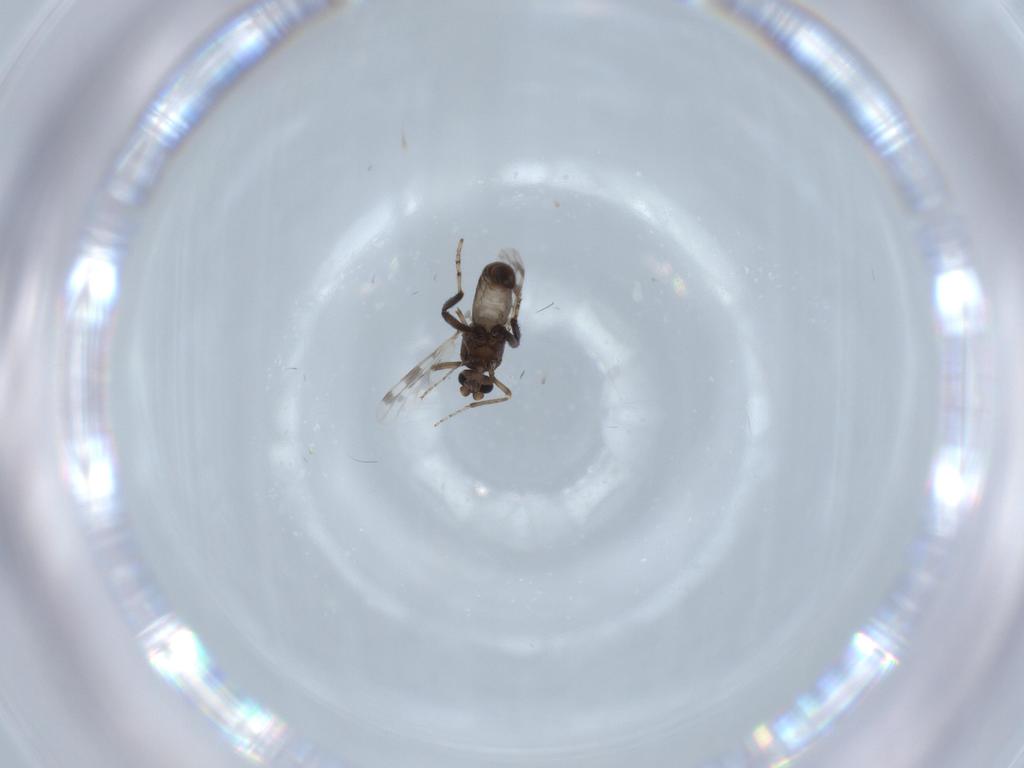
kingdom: Animalia
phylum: Arthropoda
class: Insecta
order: Diptera
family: Ceratopogonidae
